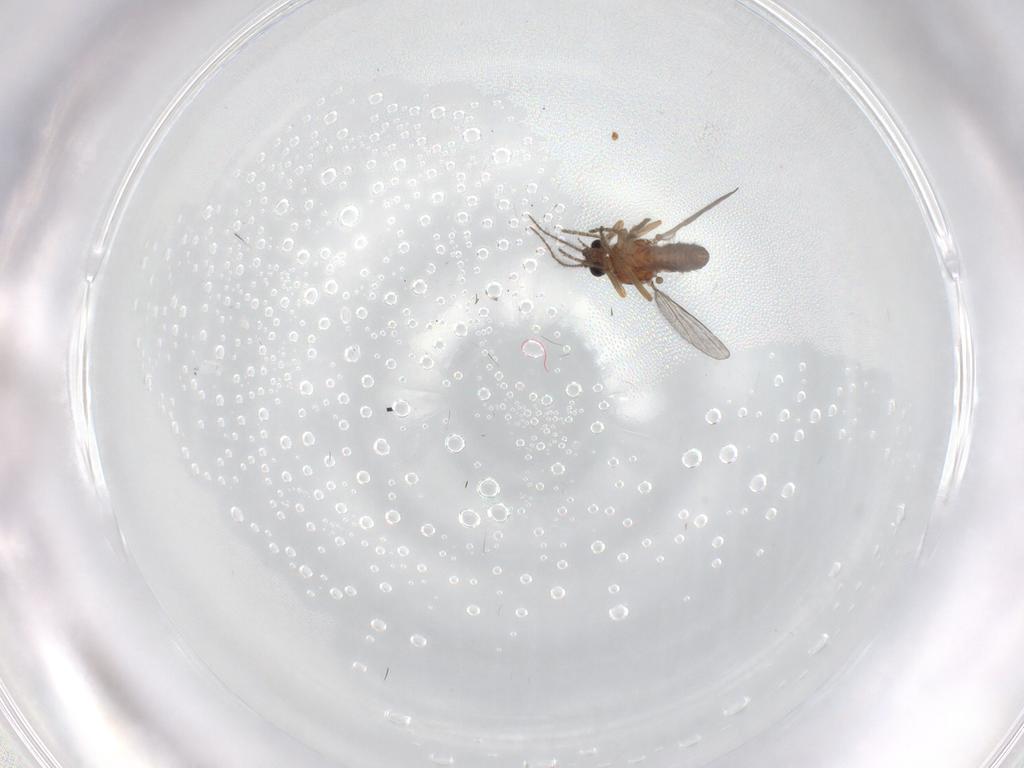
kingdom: Animalia
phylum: Arthropoda
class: Insecta
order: Diptera
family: Ceratopogonidae
